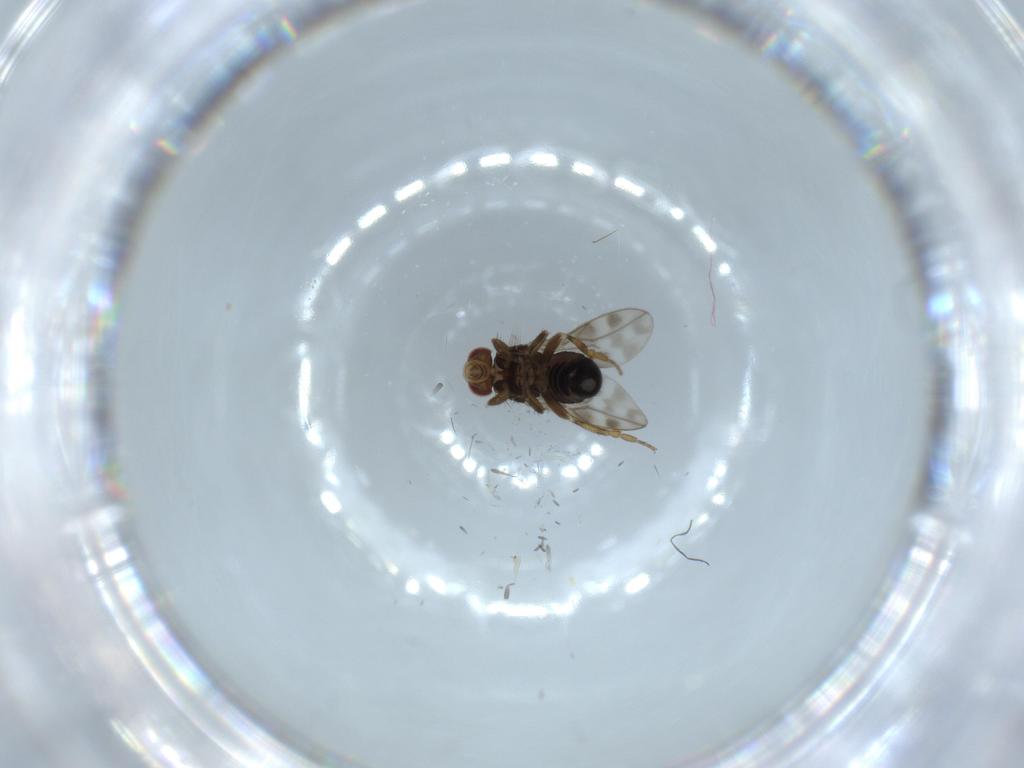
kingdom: Animalia
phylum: Arthropoda
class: Insecta
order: Diptera
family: Sphaeroceridae
